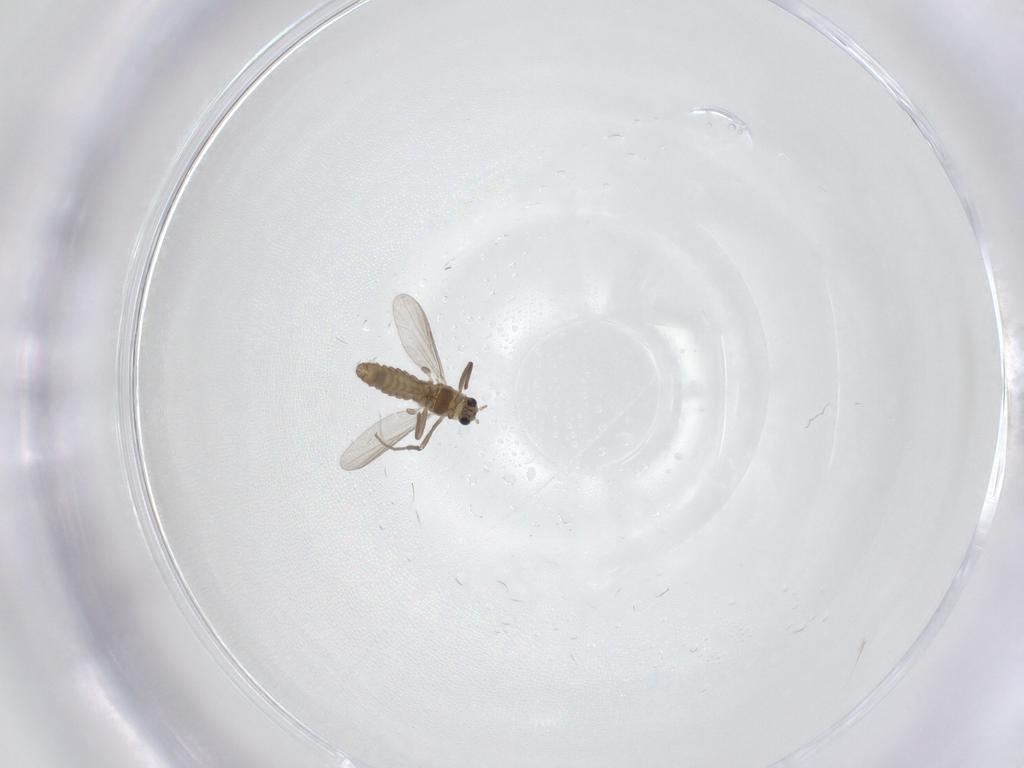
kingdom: Animalia
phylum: Arthropoda
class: Insecta
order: Diptera
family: Chironomidae
